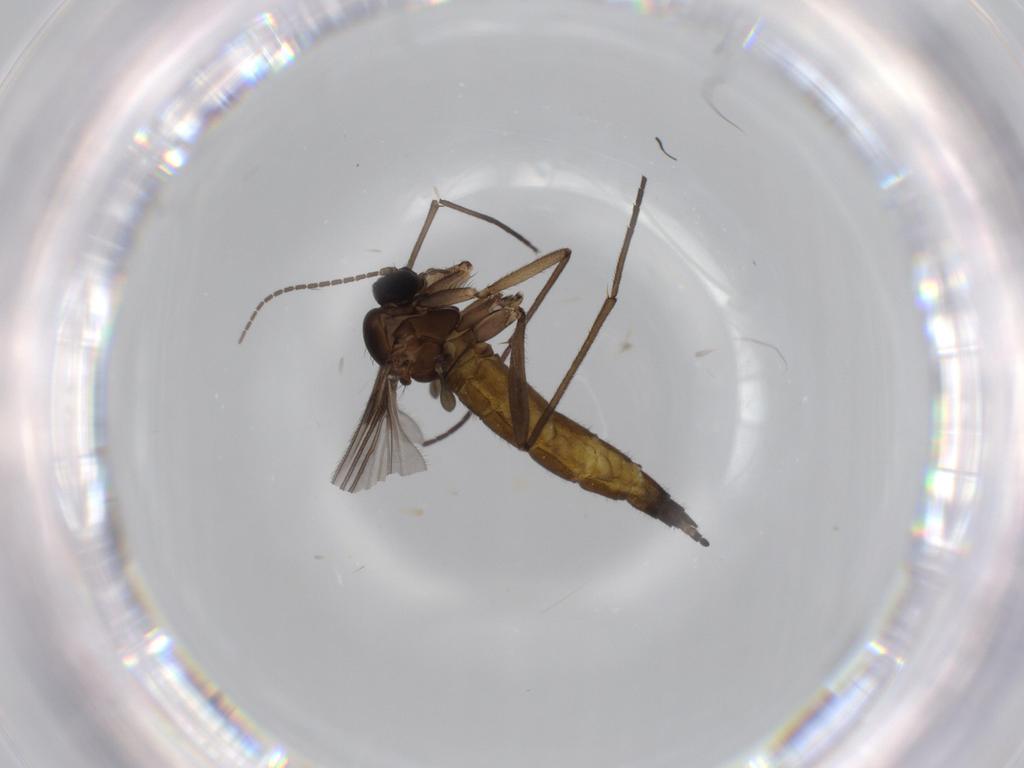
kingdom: Animalia
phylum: Arthropoda
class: Insecta
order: Diptera
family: Sciaridae
